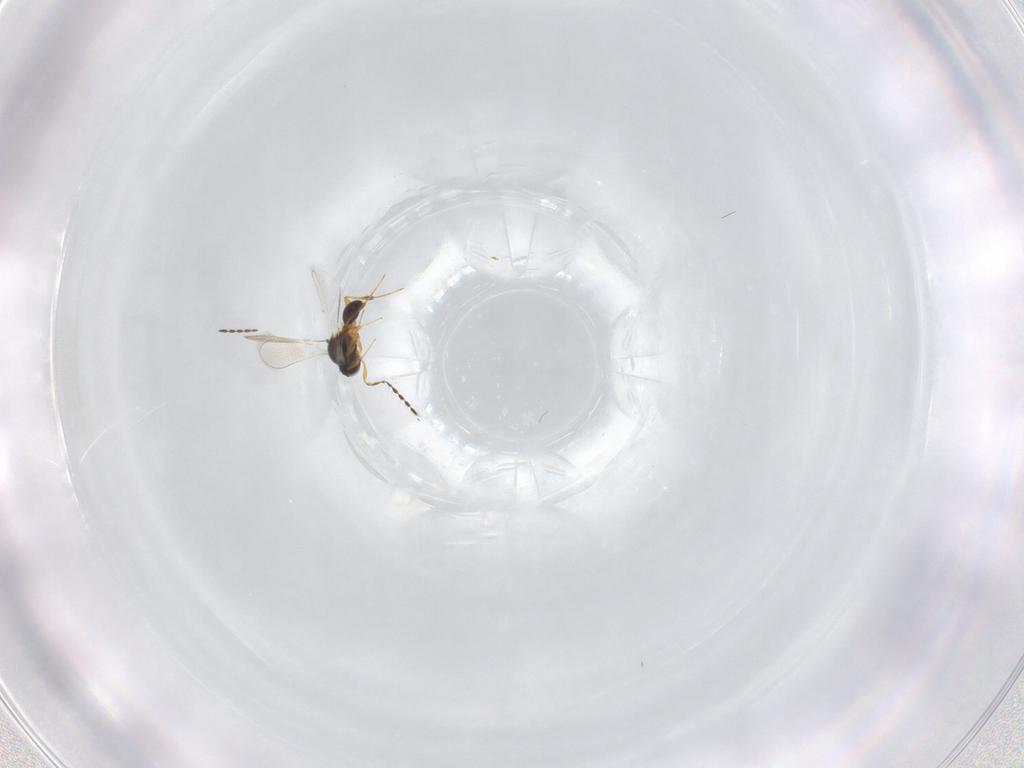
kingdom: Animalia
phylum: Arthropoda
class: Insecta
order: Hymenoptera
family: Platygastridae
